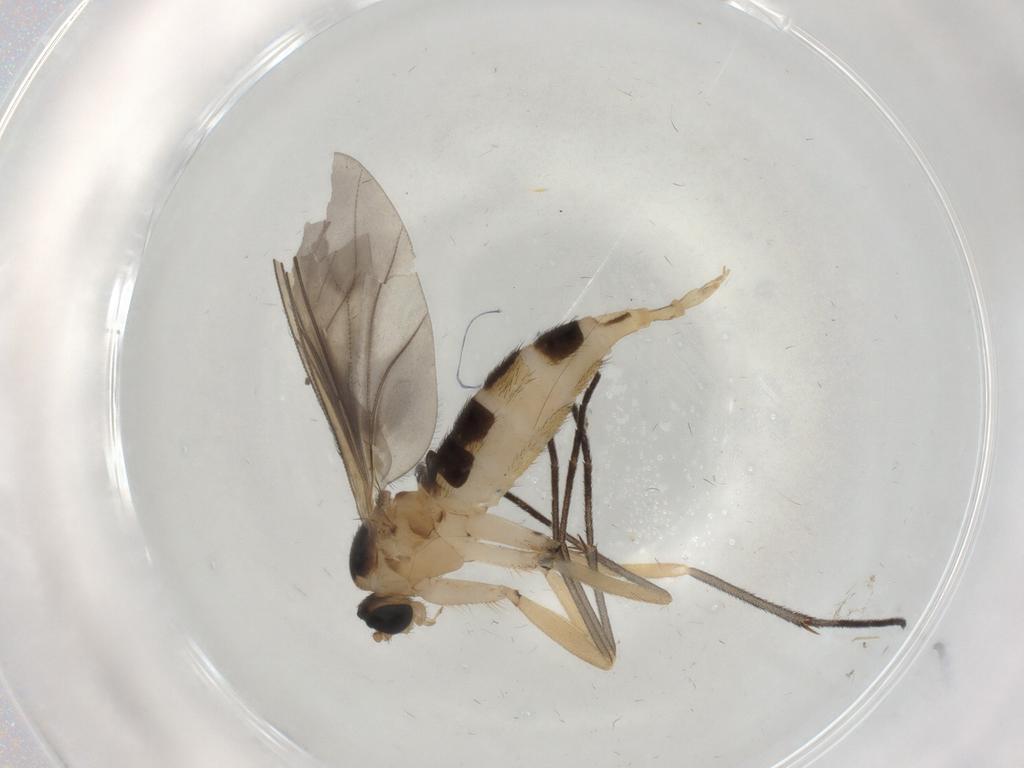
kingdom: Animalia
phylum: Arthropoda
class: Insecta
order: Diptera
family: Sciaridae
